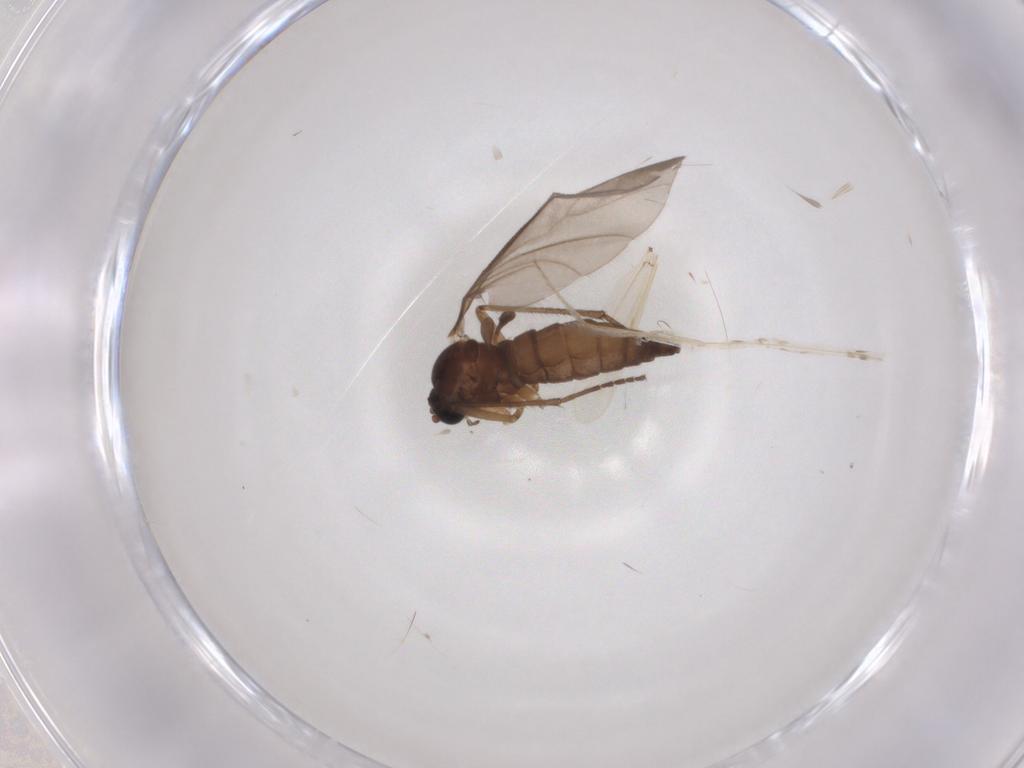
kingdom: Animalia
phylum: Arthropoda
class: Insecta
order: Diptera
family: Sciaridae
